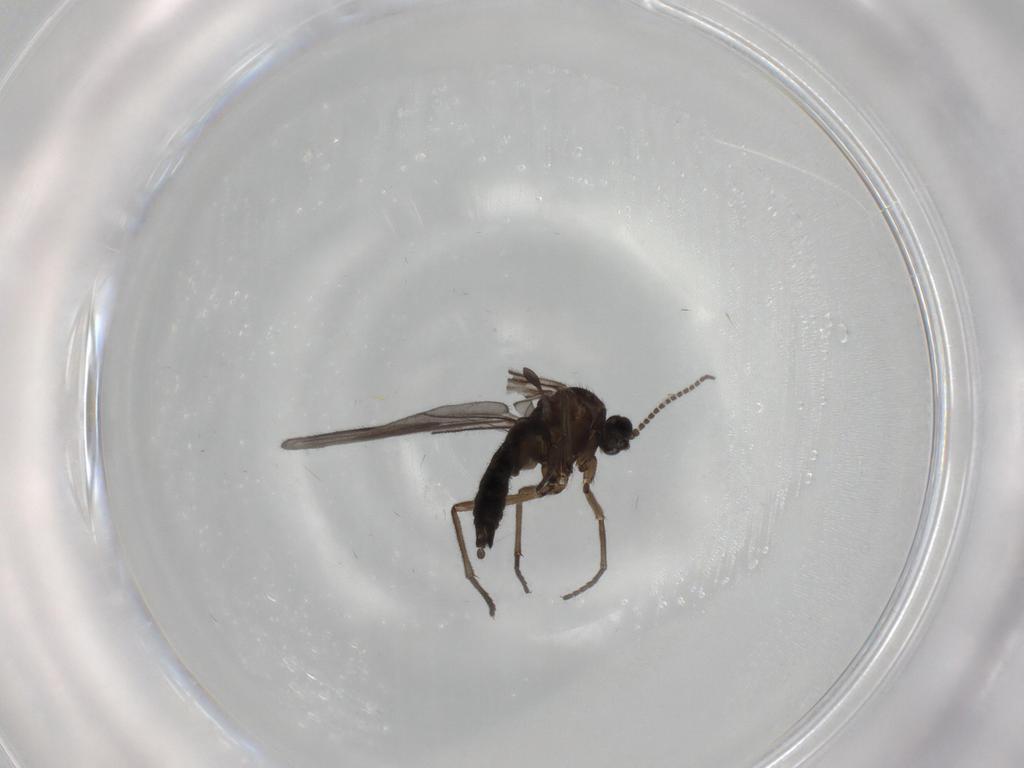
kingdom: Animalia
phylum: Arthropoda
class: Insecta
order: Diptera
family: Sciaridae
